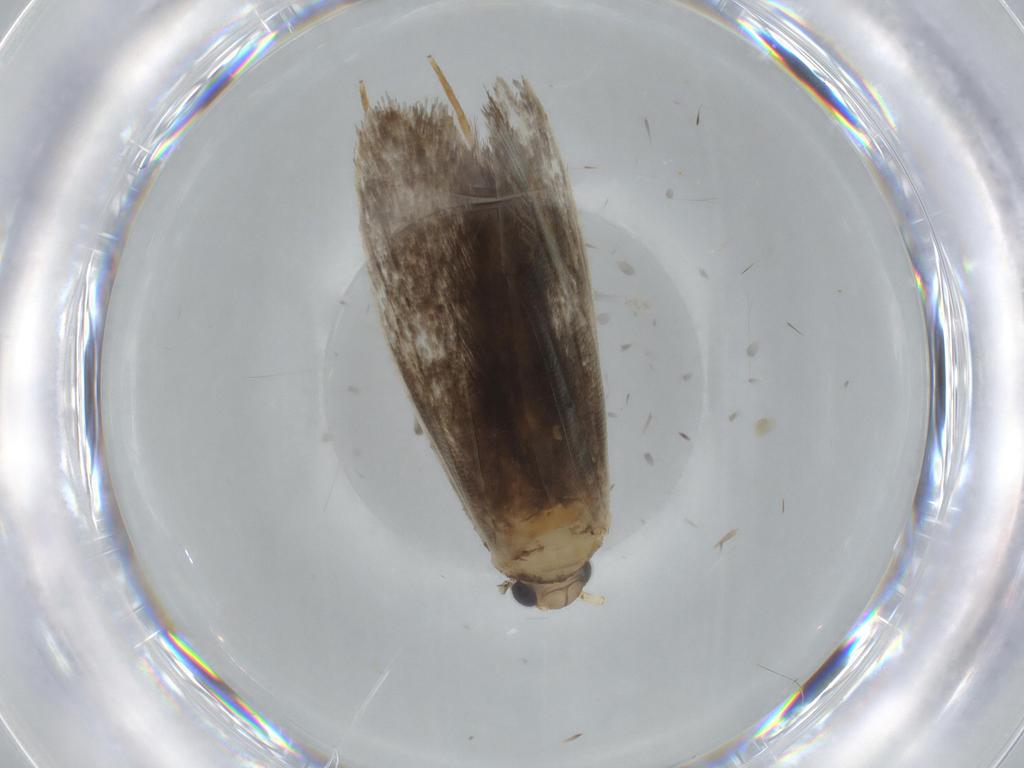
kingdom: Animalia
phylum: Arthropoda
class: Insecta
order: Lepidoptera
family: Tineidae
